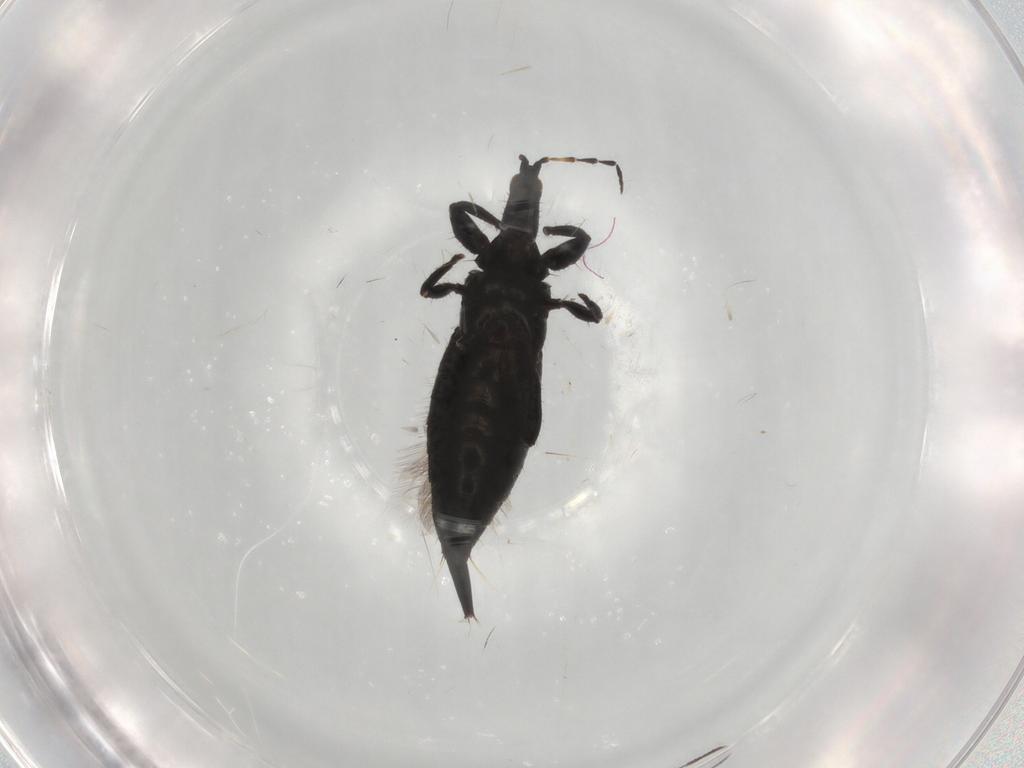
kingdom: Animalia
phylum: Arthropoda
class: Insecta
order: Thysanoptera
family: Phlaeothripidae
